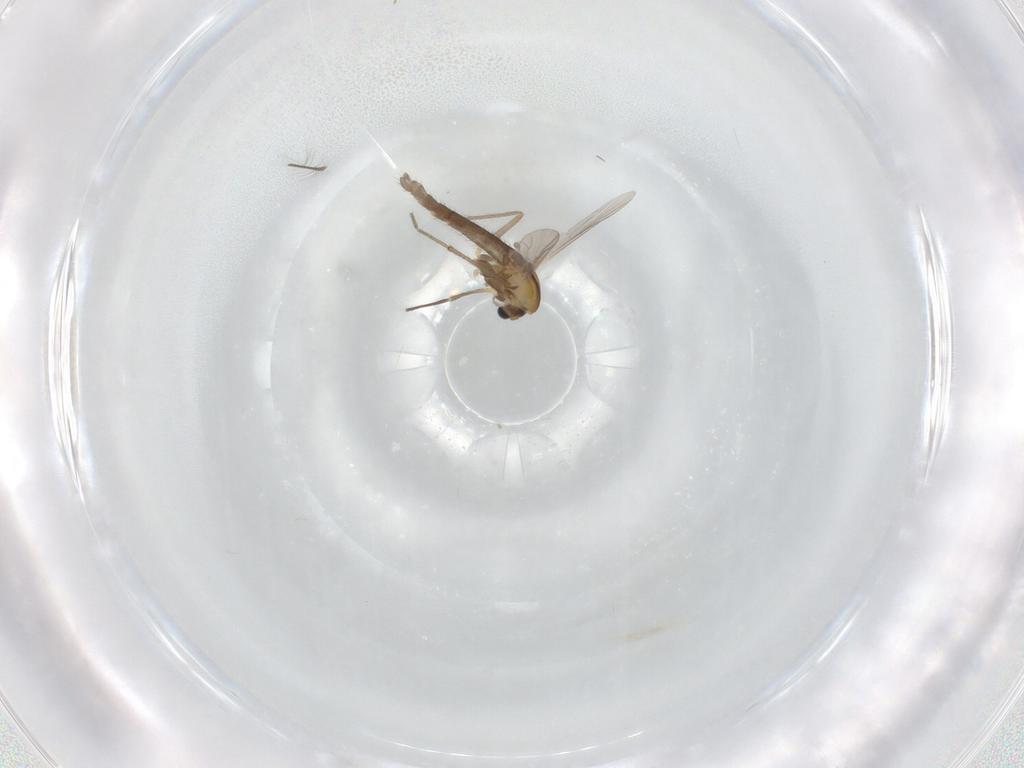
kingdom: Animalia
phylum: Arthropoda
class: Insecta
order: Diptera
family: Chironomidae
